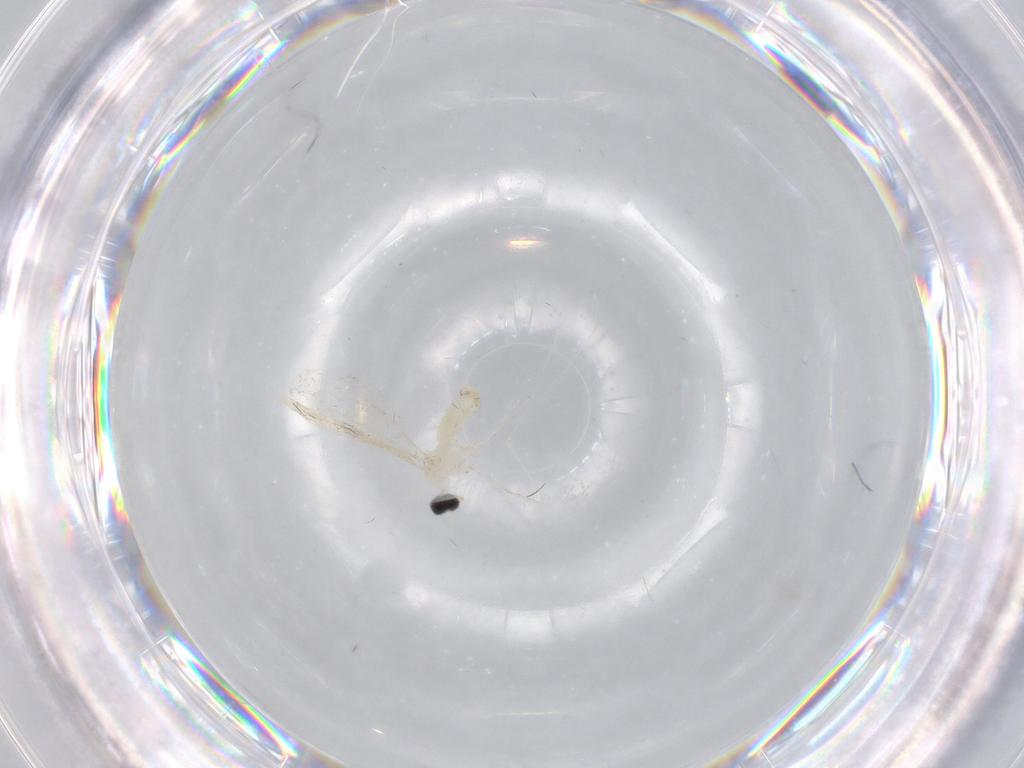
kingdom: Animalia
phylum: Arthropoda
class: Insecta
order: Diptera
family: Cecidomyiidae
